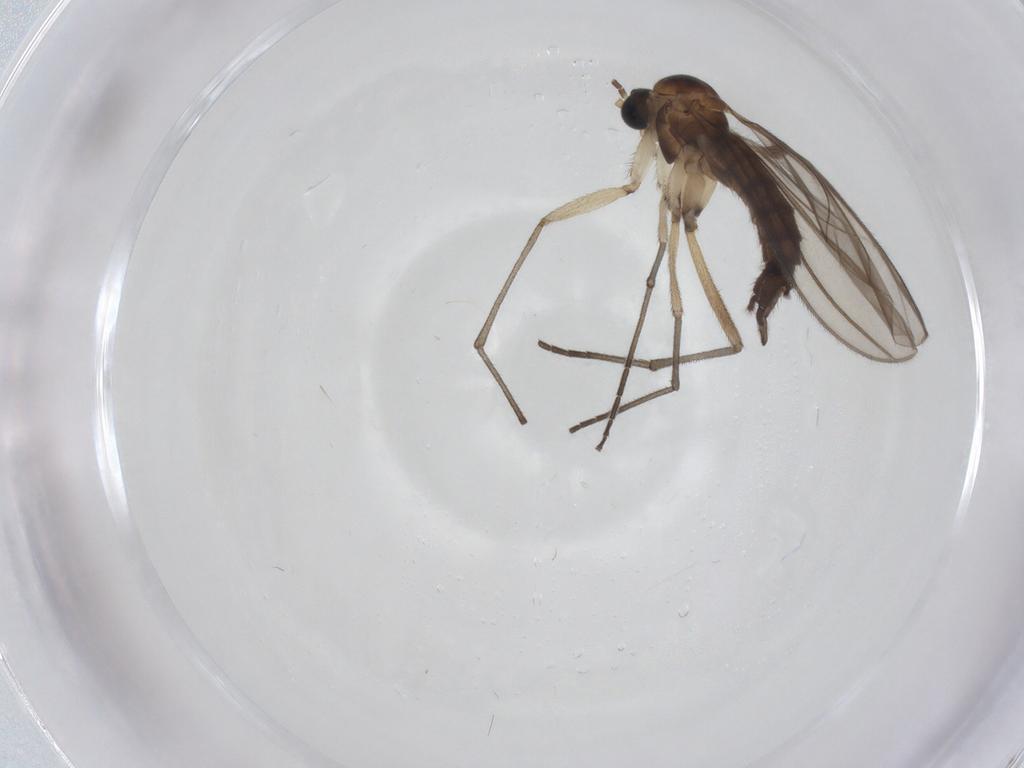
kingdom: Animalia
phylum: Arthropoda
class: Insecta
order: Diptera
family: Sciaridae
